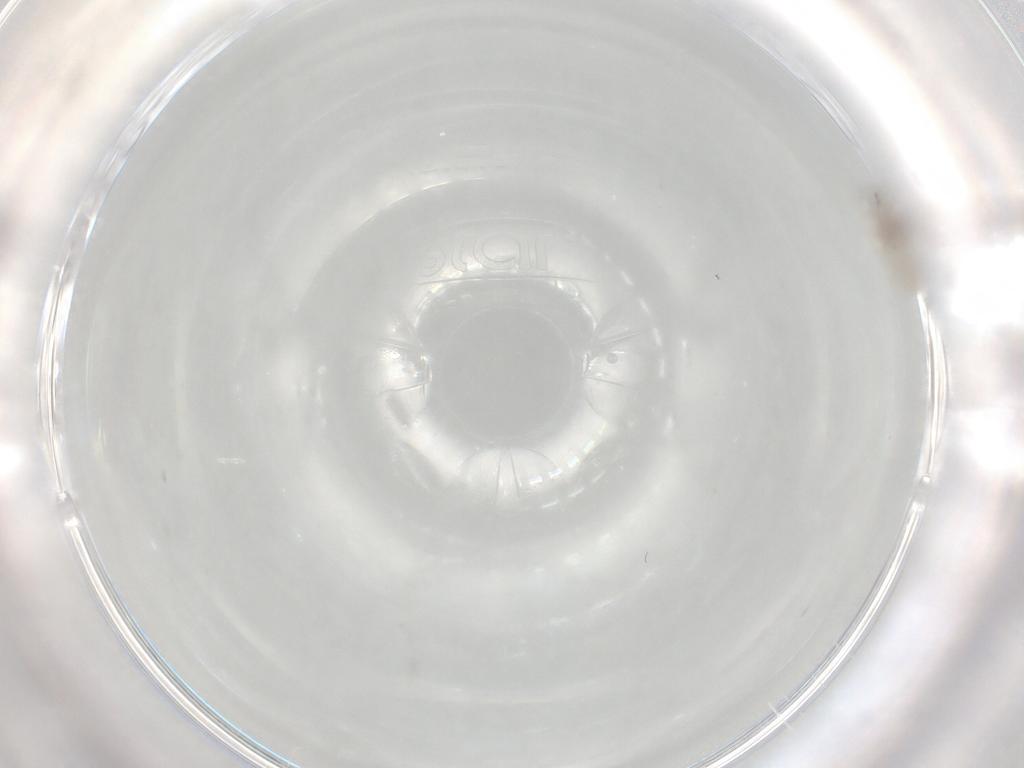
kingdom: Animalia
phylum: Arthropoda
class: Insecta
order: Diptera
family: Cecidomyiidae
